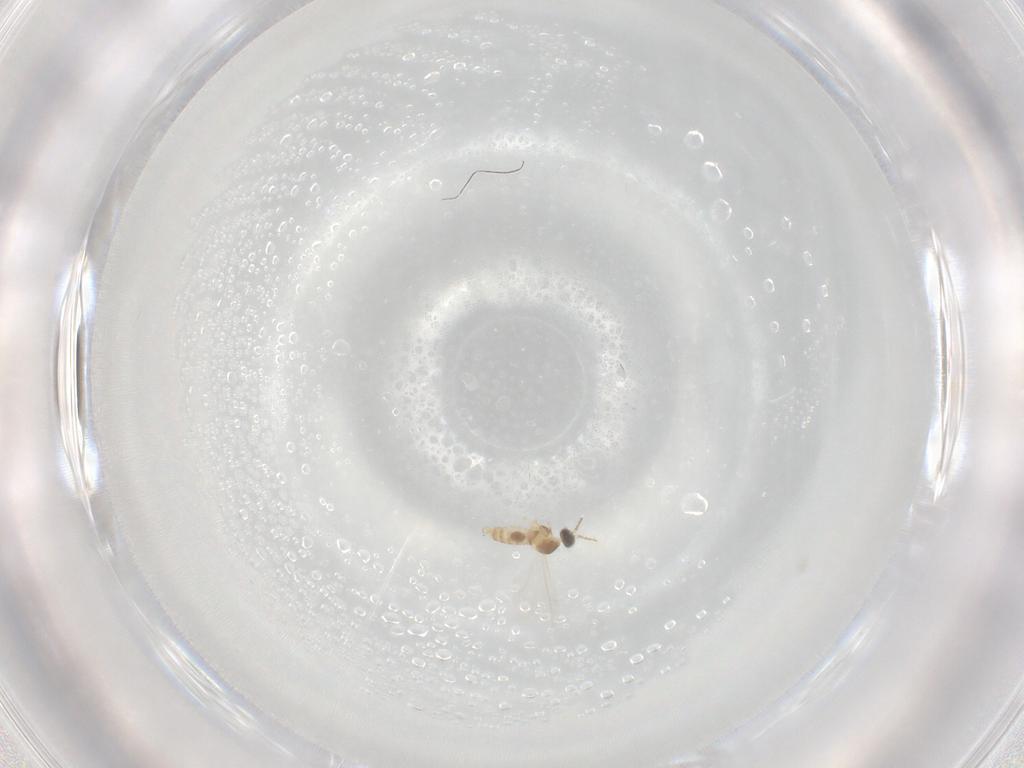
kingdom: Animalia
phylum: Arthropoda
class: Insecta
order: Diptera
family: Cecidomyiidae
